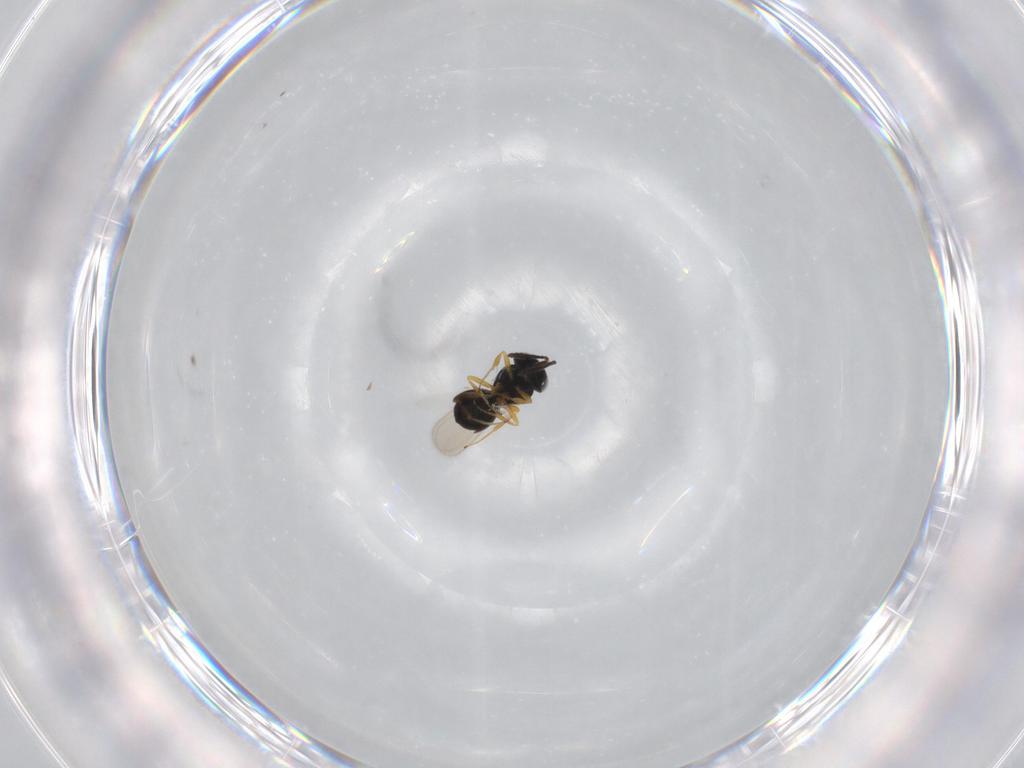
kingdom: Animalia
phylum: Arthropoda
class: Insecta
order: Hymenoptera
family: Scelionidae
